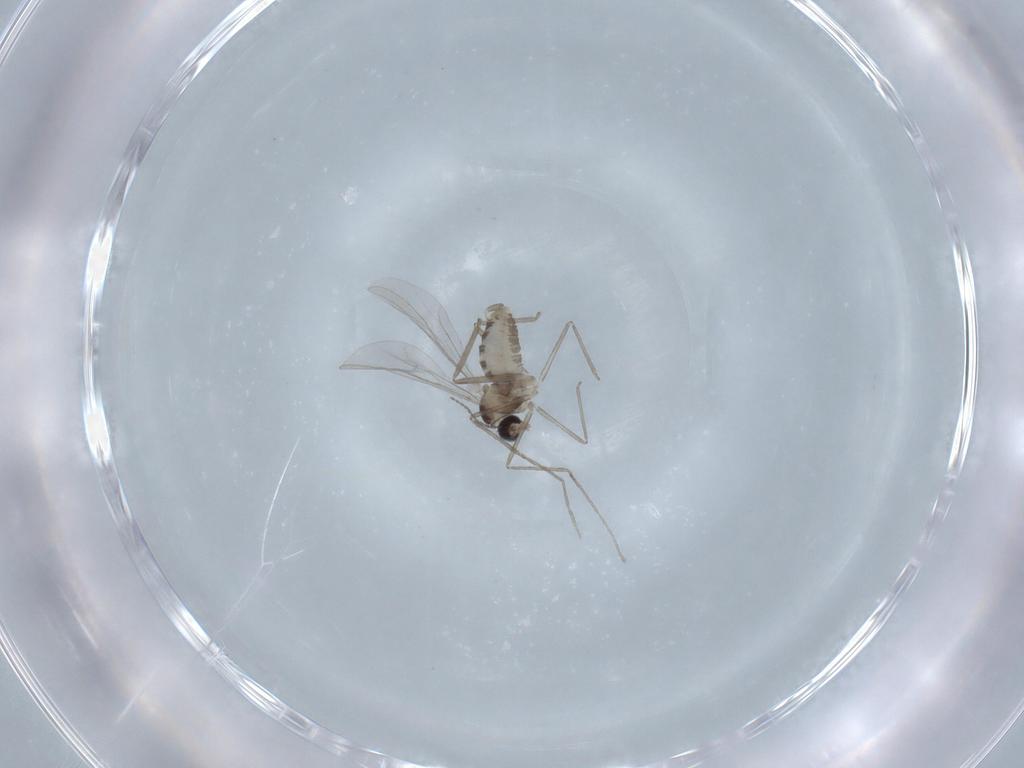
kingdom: Animalia
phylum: Arthropoda
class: Insecta
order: Diptera
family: Cecidomyiidae
